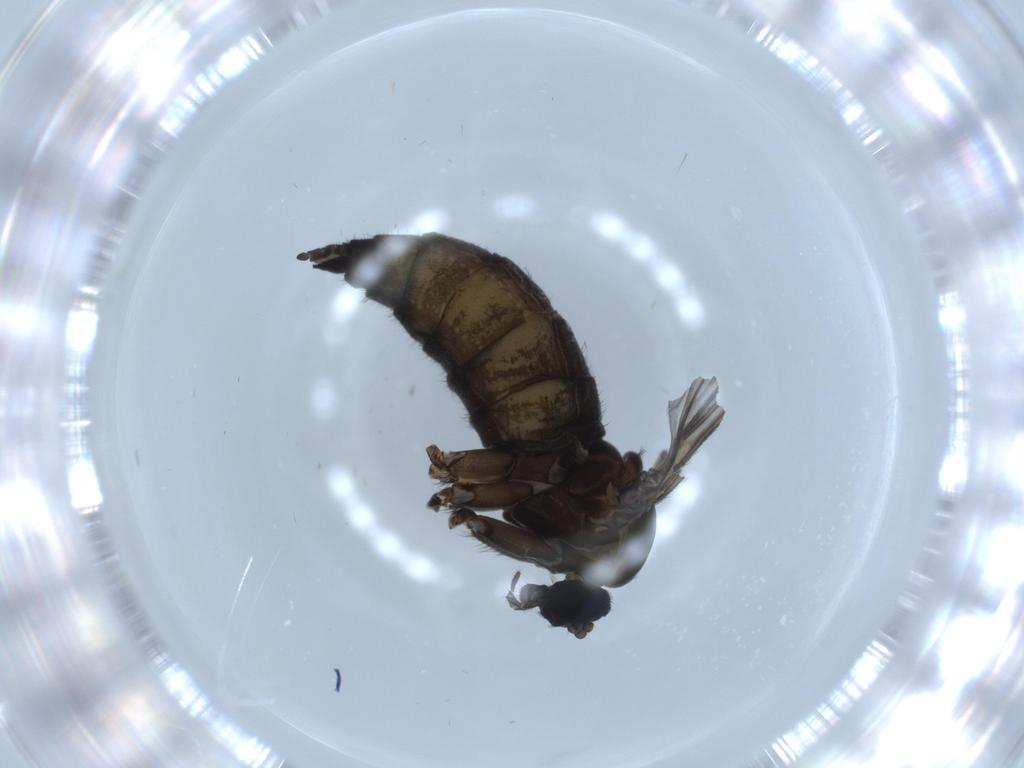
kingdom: Animalia
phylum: Arthropoda
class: Insecta
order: Diptera
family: Sciaridae
